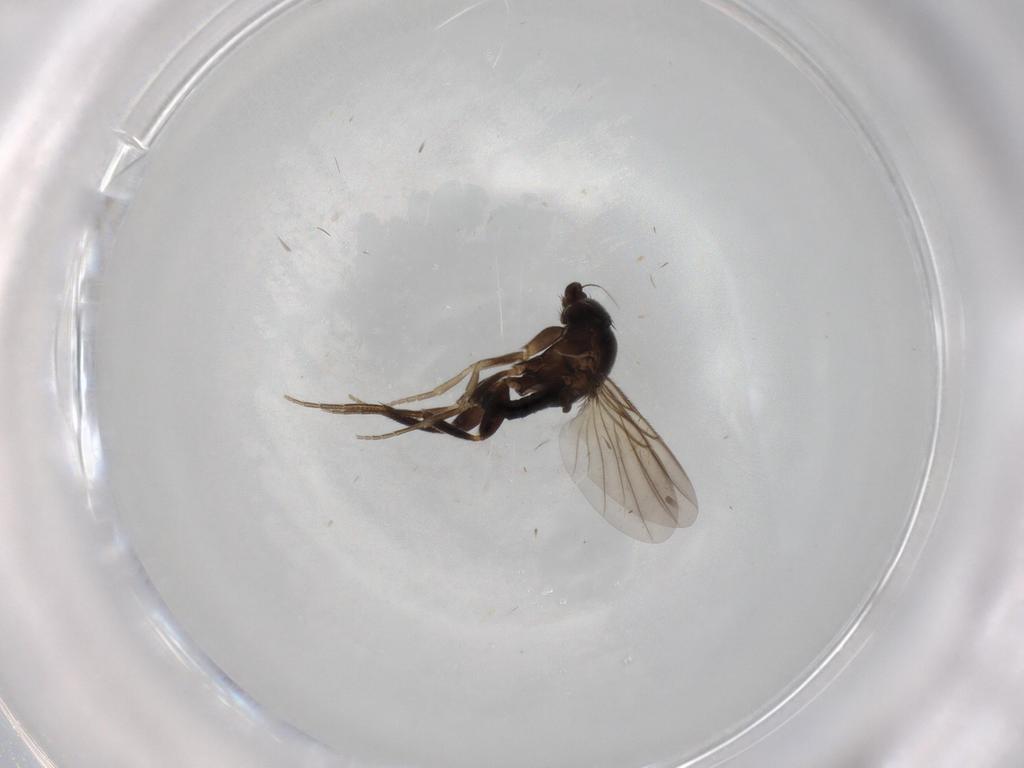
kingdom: Animalia
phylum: Arthropoda
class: Insecta
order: Diptera
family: Phoridae
